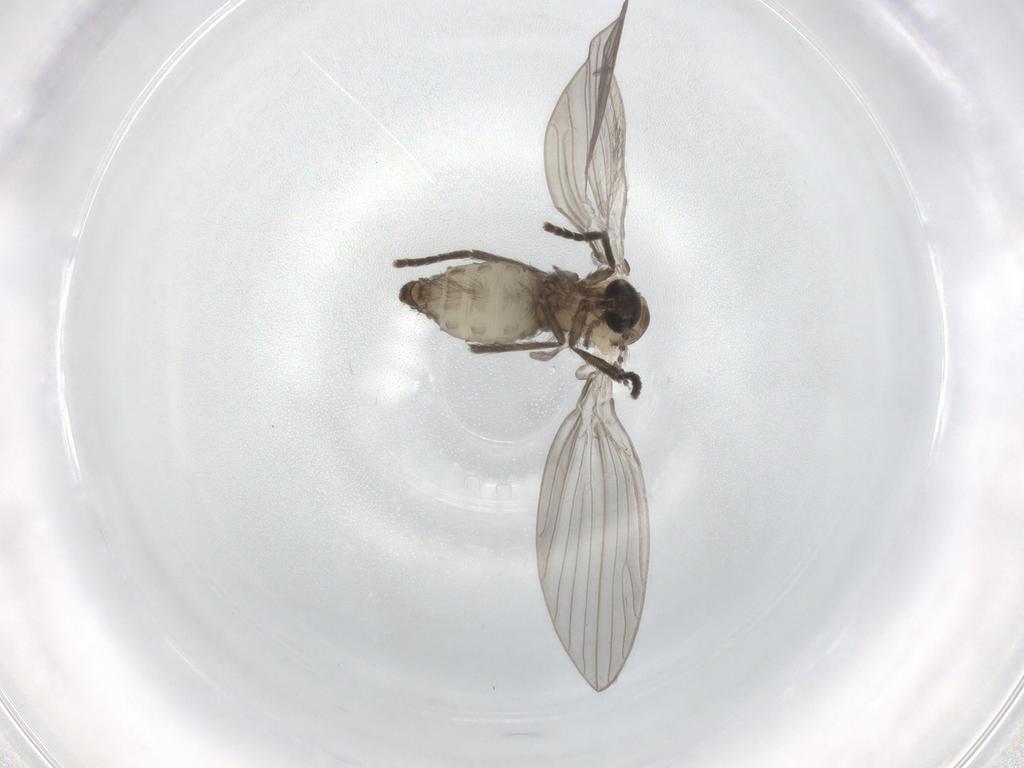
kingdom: Animalia
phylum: Arthropoda
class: Insecta
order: Diptera
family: Psychodidae
